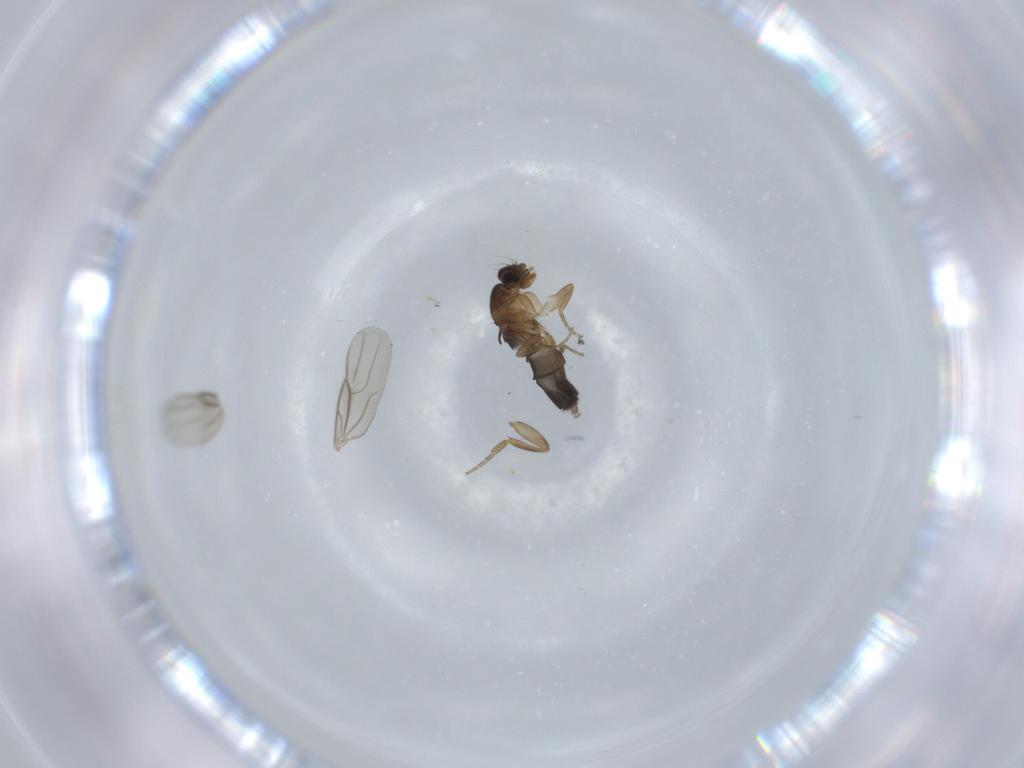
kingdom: Animalia
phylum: Arthropoda
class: Insecta
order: Diptera
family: Phoridae
